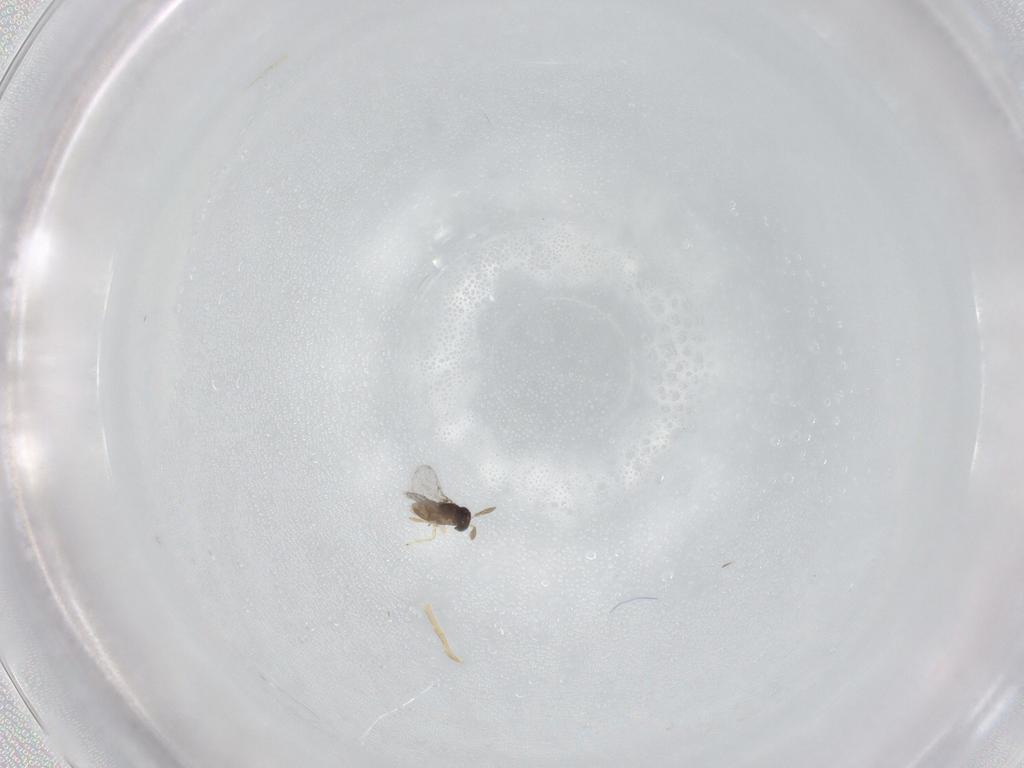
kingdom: Animalia
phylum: Arthropoda
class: Insecta
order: Hymenoptera
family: Encyrtidae
